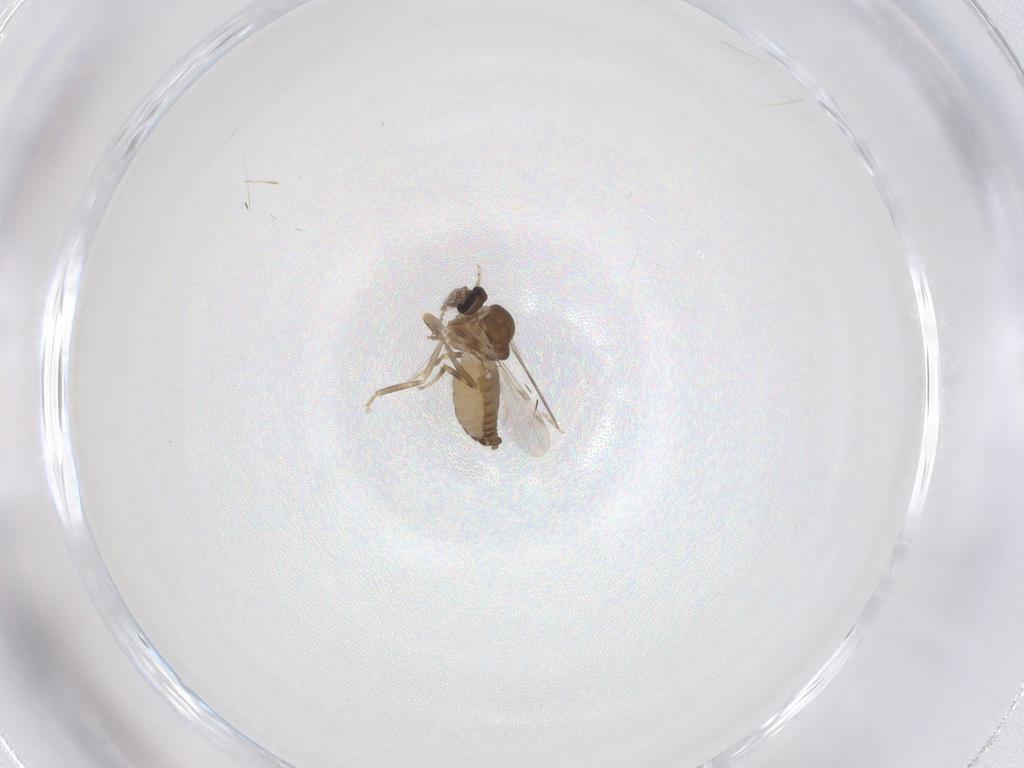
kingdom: Animalia
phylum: Arthropoda
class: Insecta
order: Diptera
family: Ceratopogonidae
